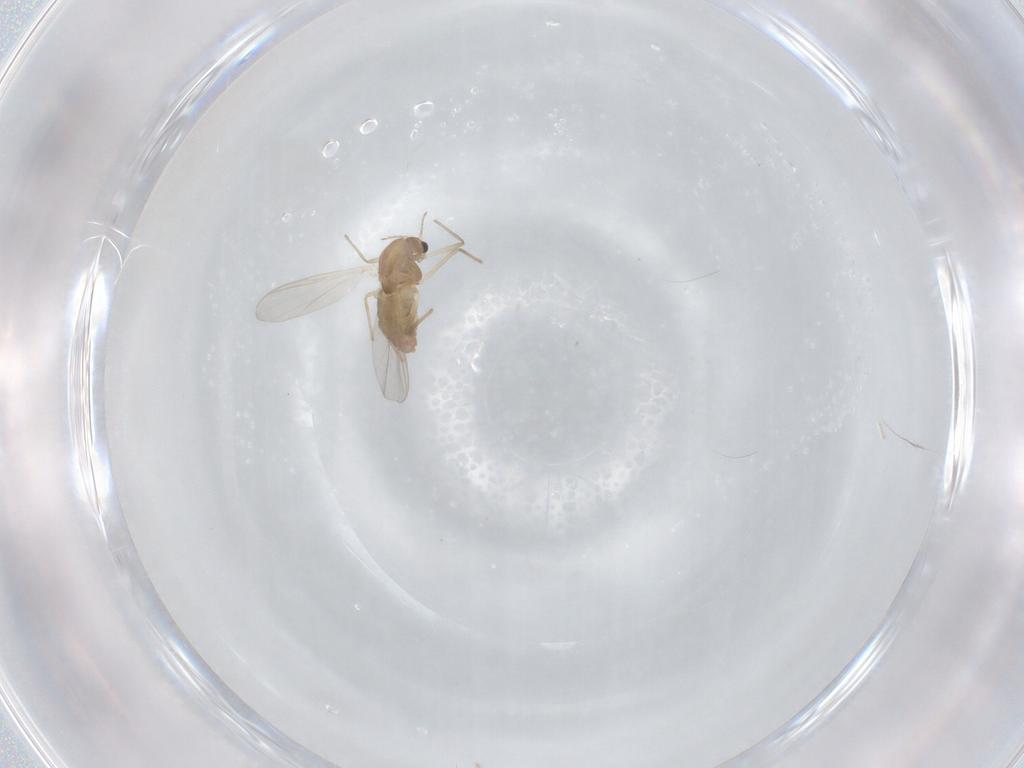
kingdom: Animalia
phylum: Arthropoda
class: Insecta
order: Diptera
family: Chironomidae
